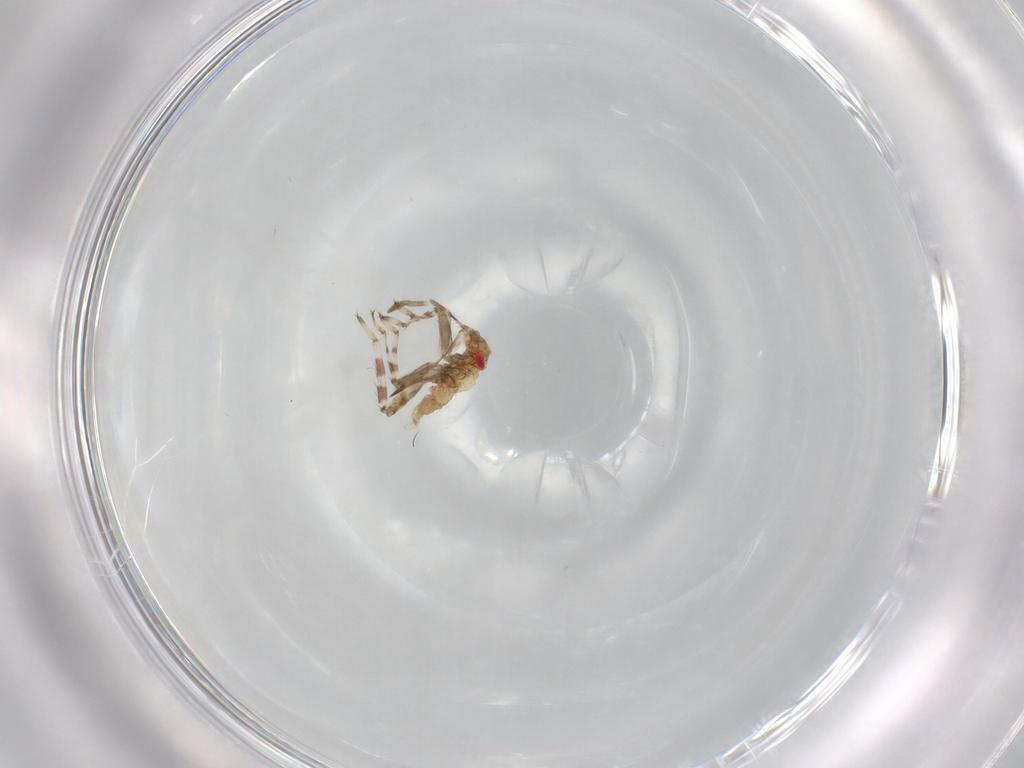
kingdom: Animalia
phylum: Arthropoda
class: Insecta
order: Hemiptera
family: Miridae
